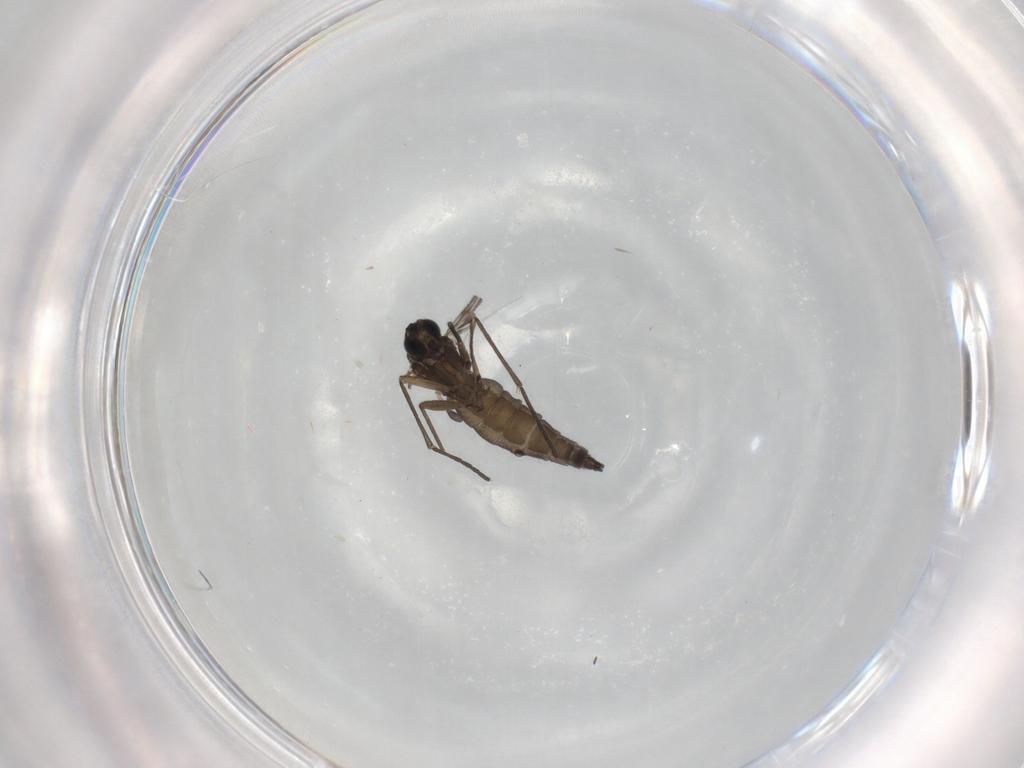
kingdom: Animalia
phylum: Arthropoda
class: Insecta
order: Diptera
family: Sciaridae
